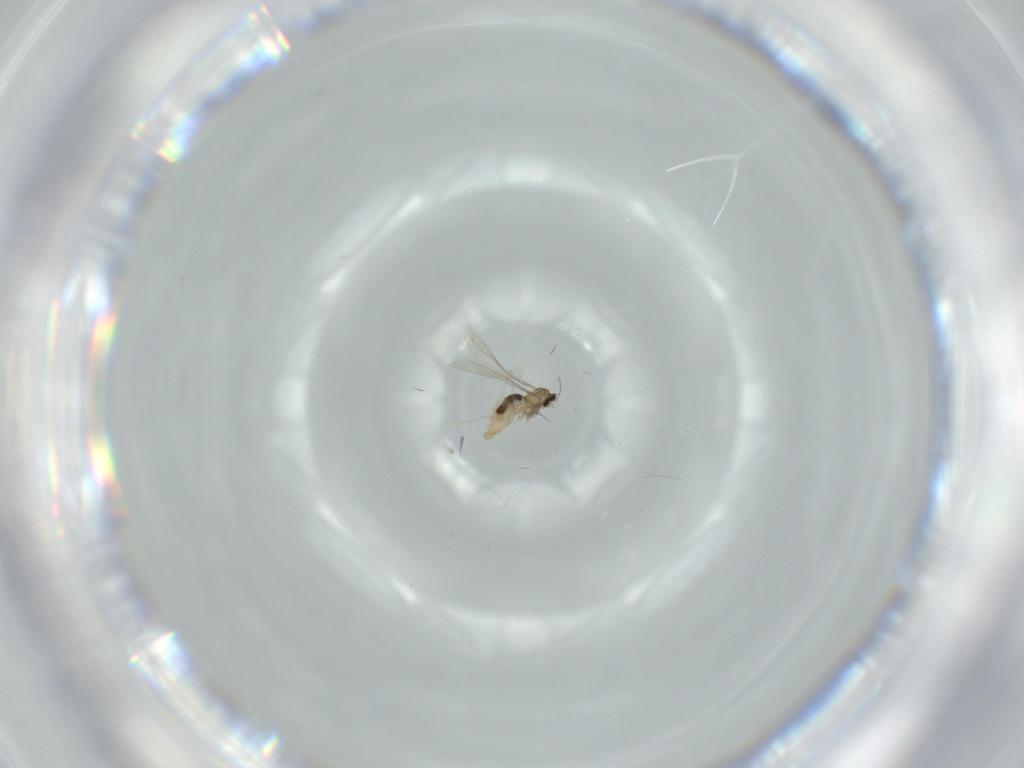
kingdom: Animalia
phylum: Arthropoda
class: Insecta
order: Diptera
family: Cecidomyiidae
